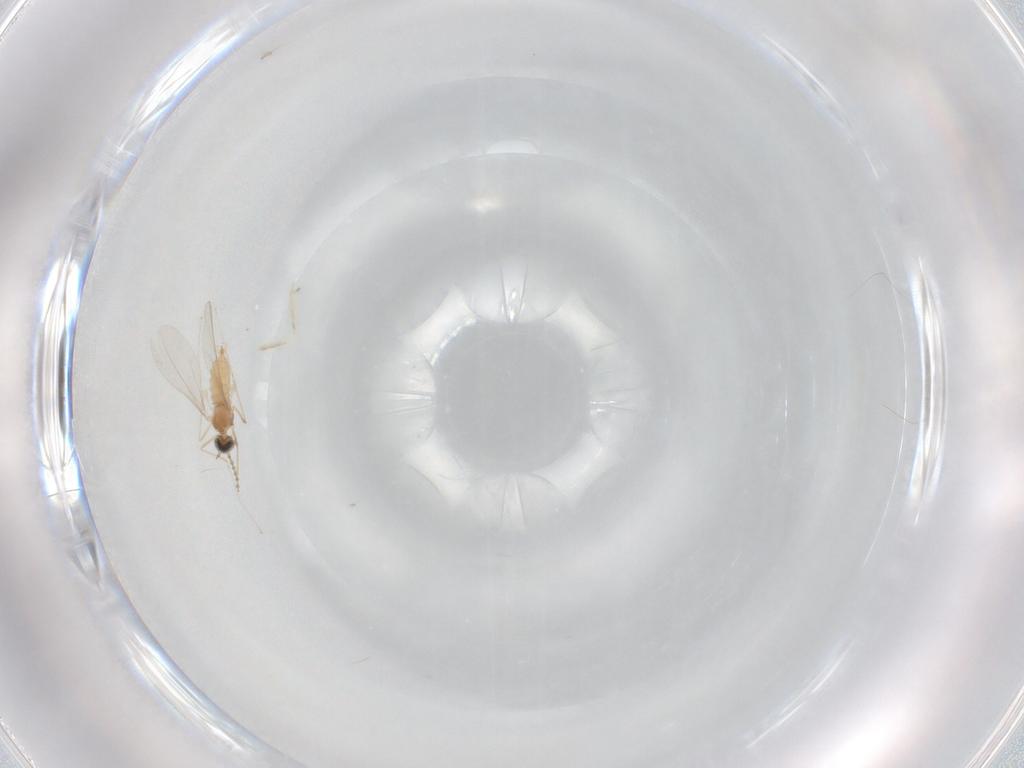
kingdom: Animalia
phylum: Arthropoda
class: Insecta
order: Diptera
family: Cecidomyiidae
